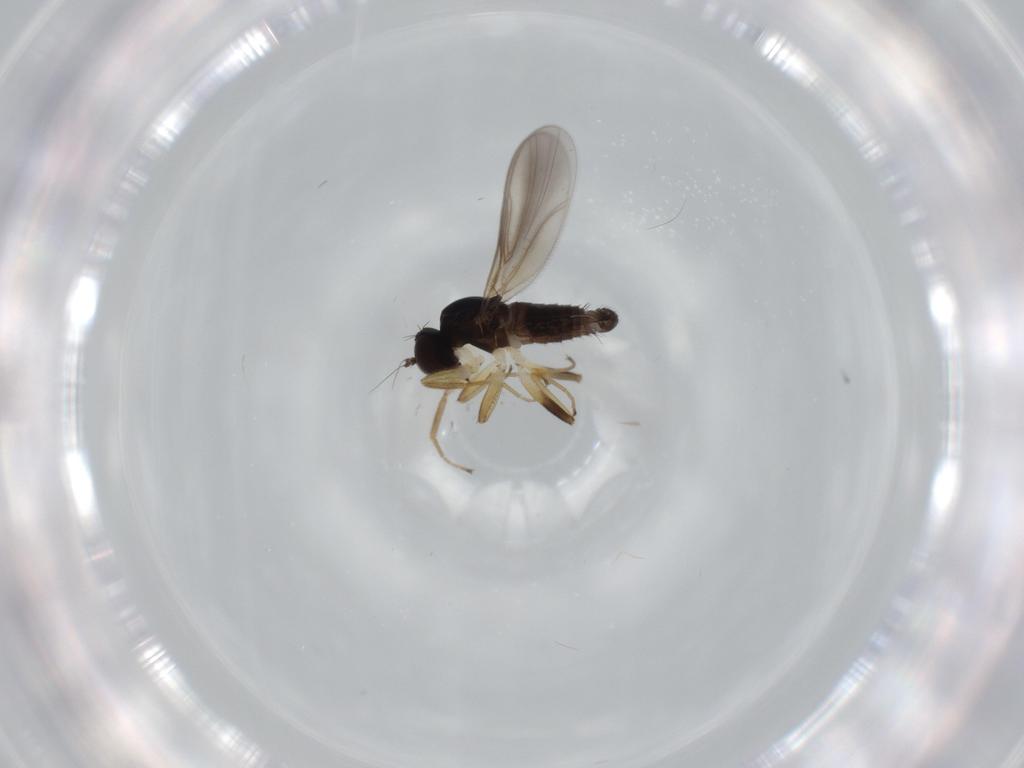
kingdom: Animalia
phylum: Arthropoda
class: Insecta
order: Diptera
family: Hybotidae
